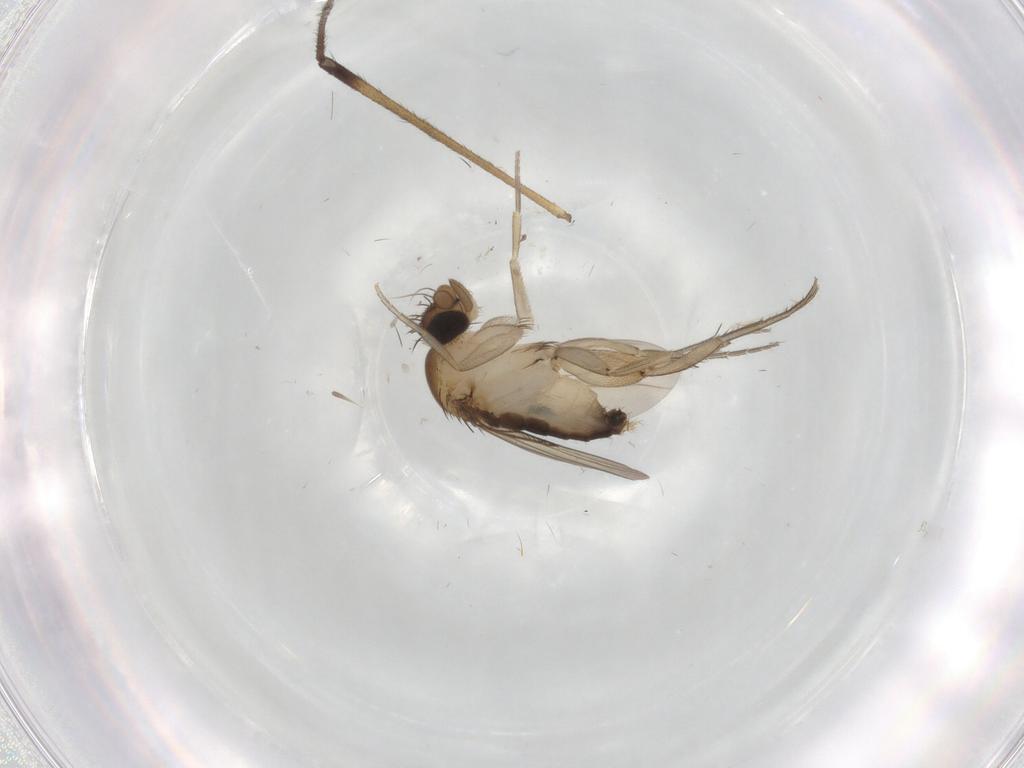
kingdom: Animalia
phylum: Arthropoda
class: Insecta
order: Diptera
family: Phoridae
